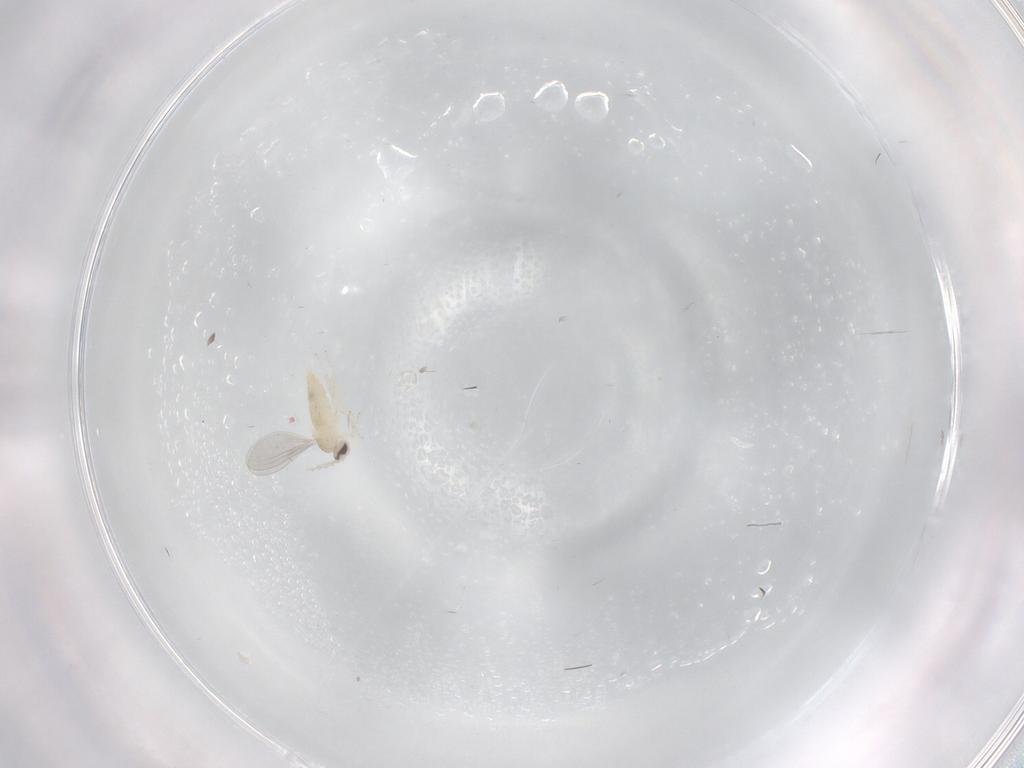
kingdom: Animalia
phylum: Arthropoda
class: Insecta
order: Diptera
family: Cecidomyiidae
